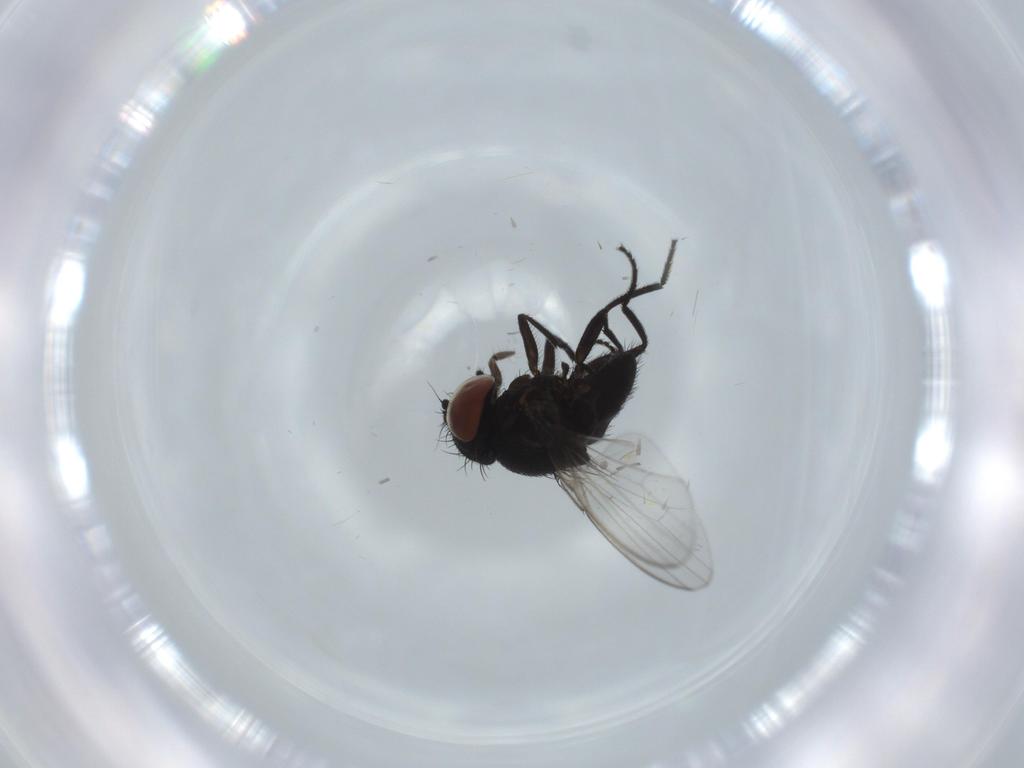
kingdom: Animalia
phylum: Arthropoda
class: Insecta
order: Diptera
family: Milichiidae
